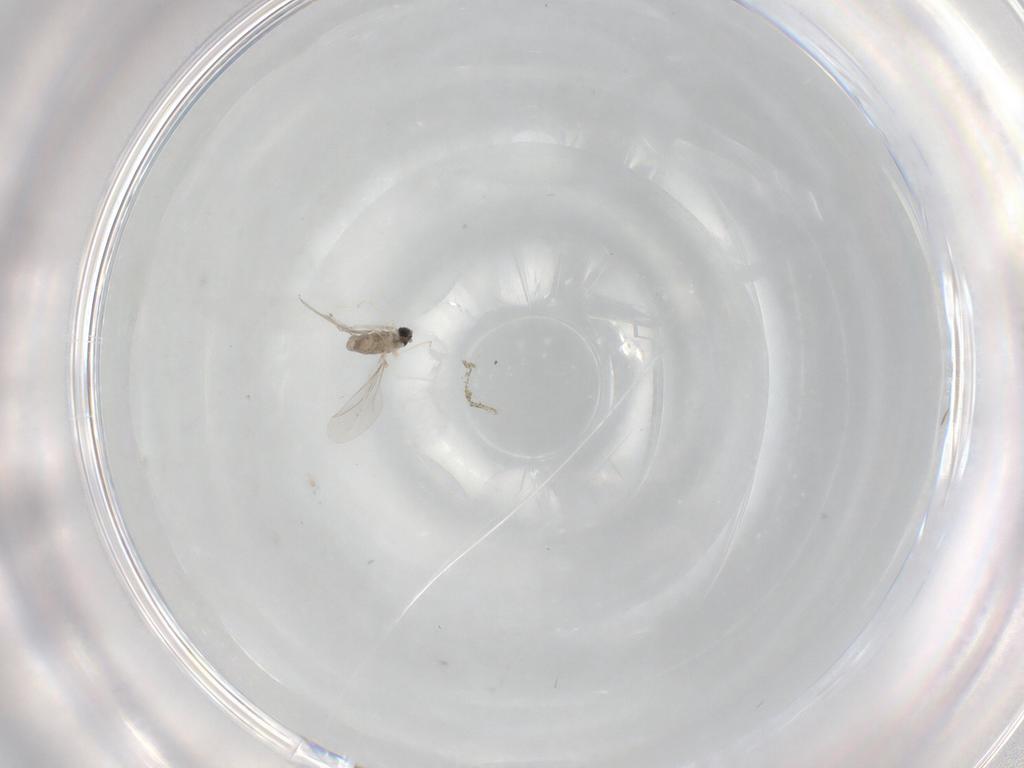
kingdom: Animalia
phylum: Arthropoda
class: Insecta
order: Diptera
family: Cecidomyiidae
